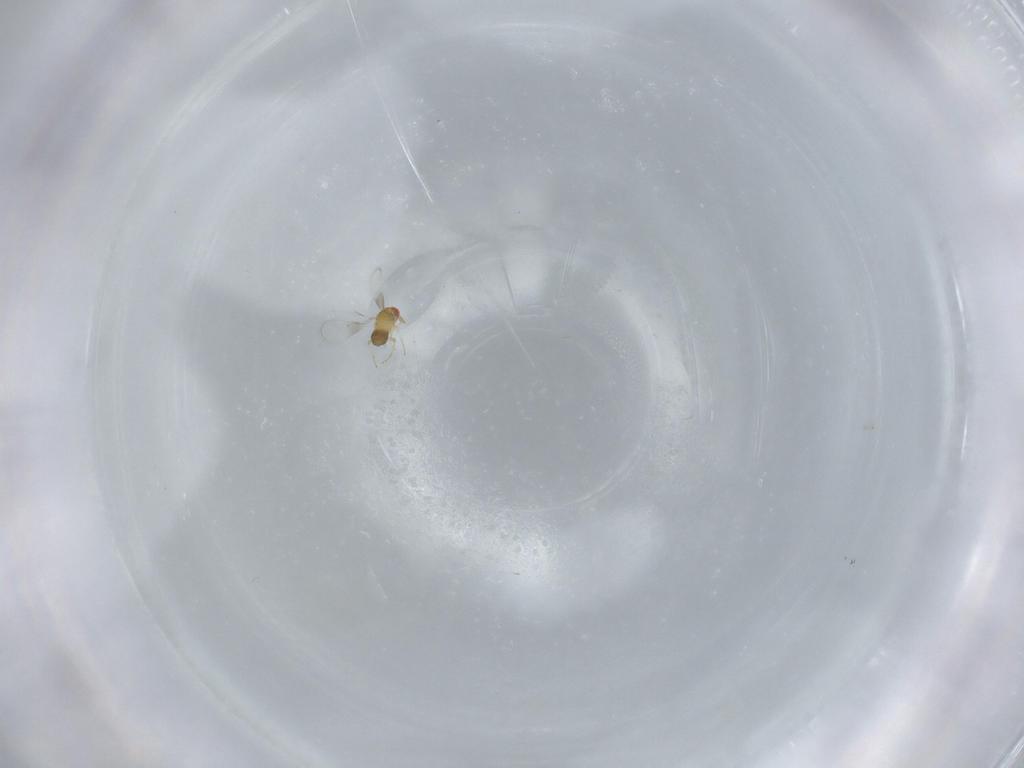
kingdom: Animalia
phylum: Arthropoda
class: Insecta
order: Hymenoptera
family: Trichogrammatidae
